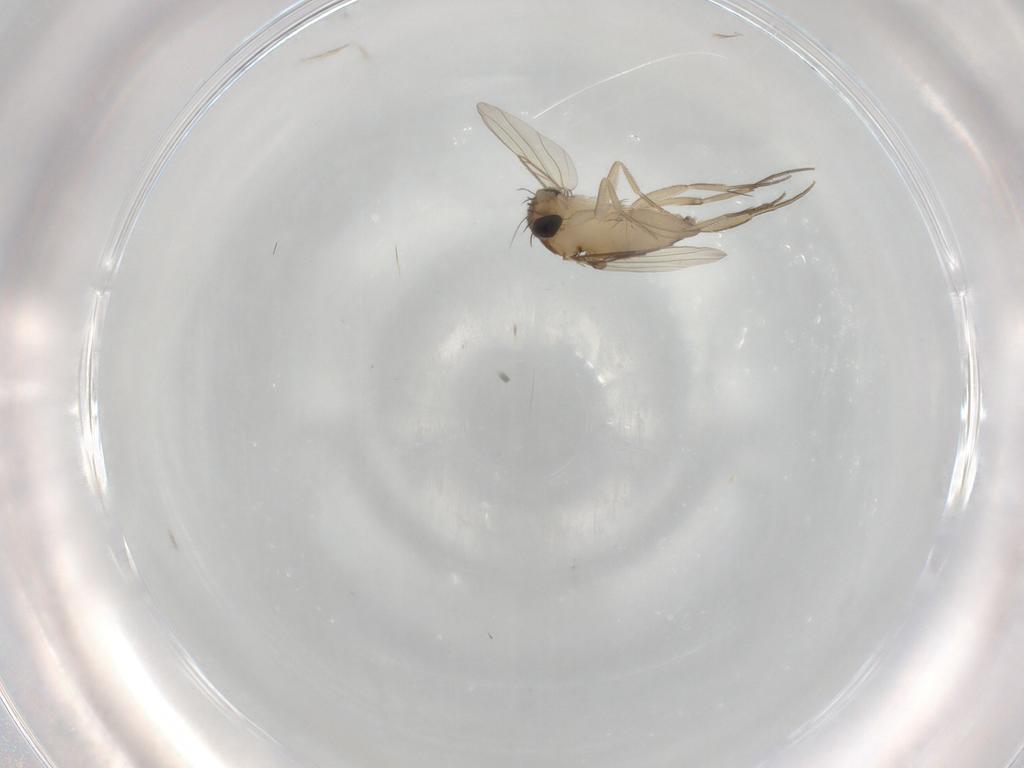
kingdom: Animalia
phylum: Arthropoda
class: Insecta
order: Diptera
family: Phoridae
